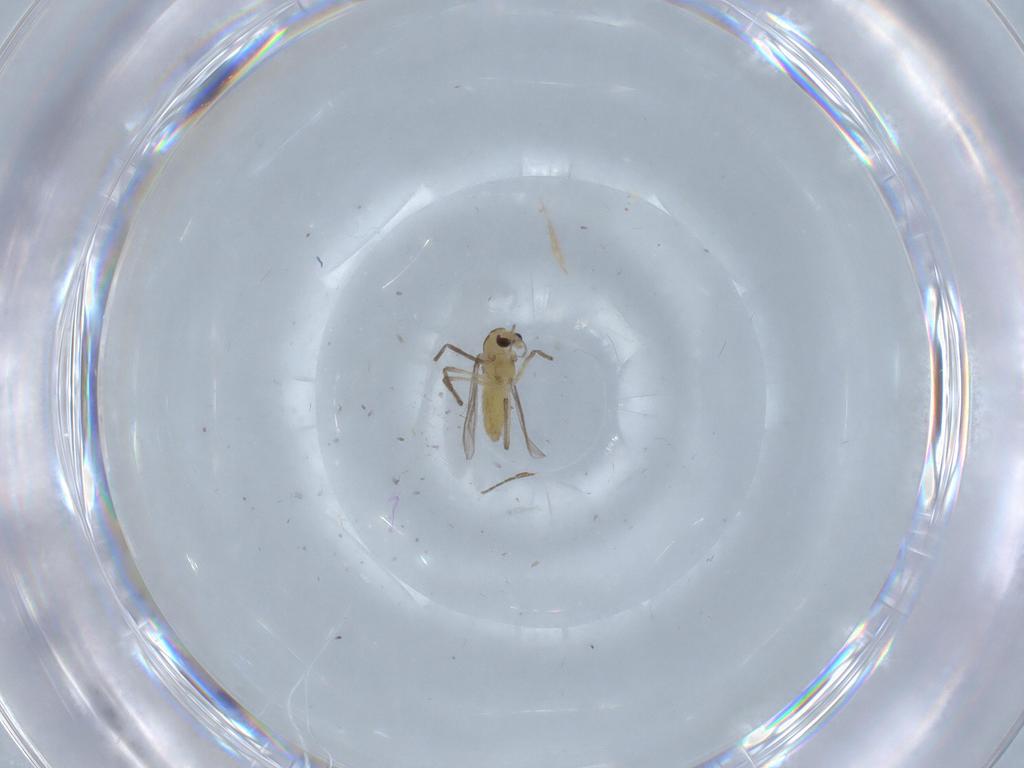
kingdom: Animalia
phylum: Arthropoda
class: Insecta
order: Diptera
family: Chironomidae
